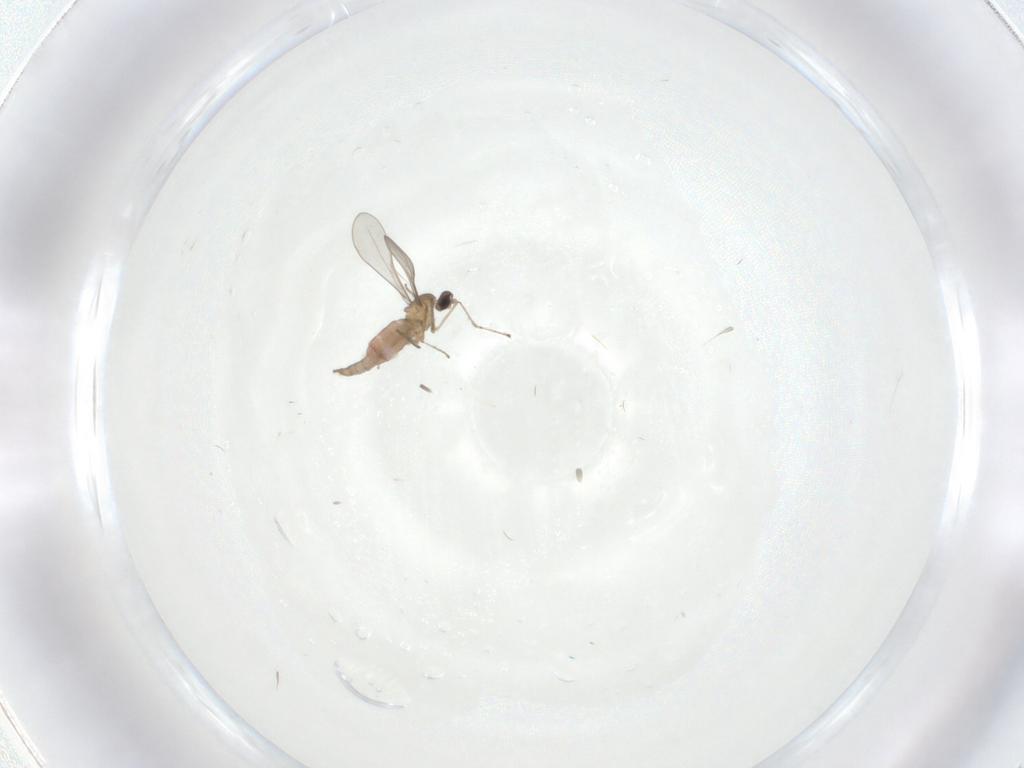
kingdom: Animalia
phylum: Arthropoda
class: Insecta
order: Diptera
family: Cecidomyiidae
